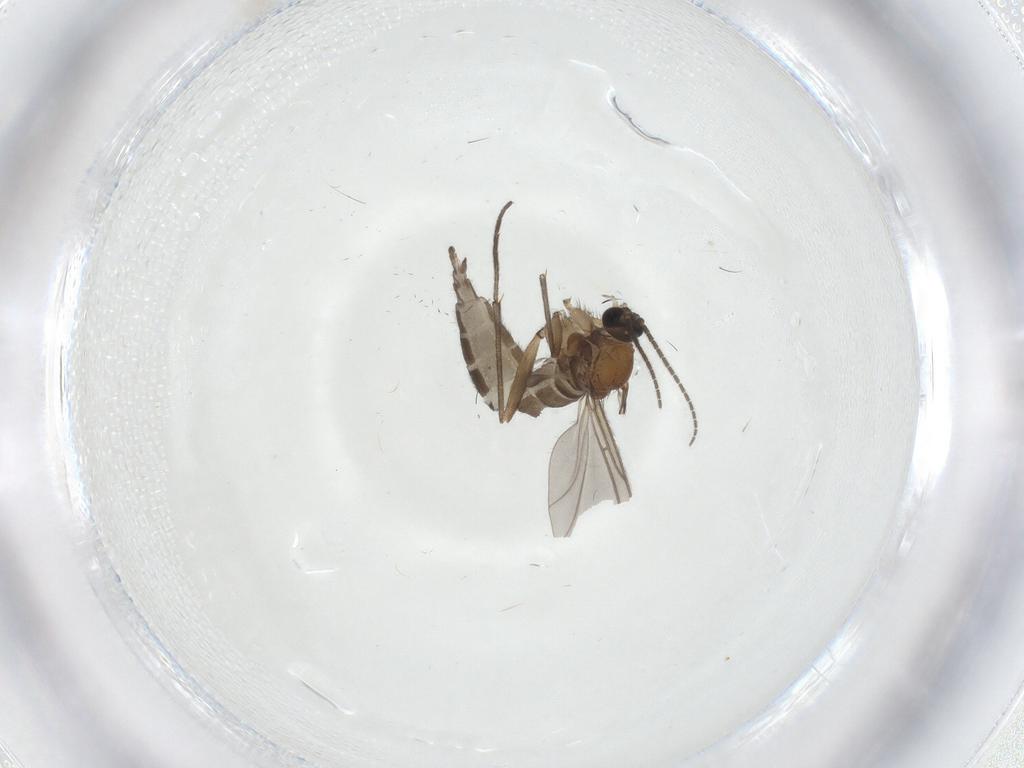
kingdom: Animalia
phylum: Arthropoda
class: Insecta
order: Diptera
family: Sciaridae
